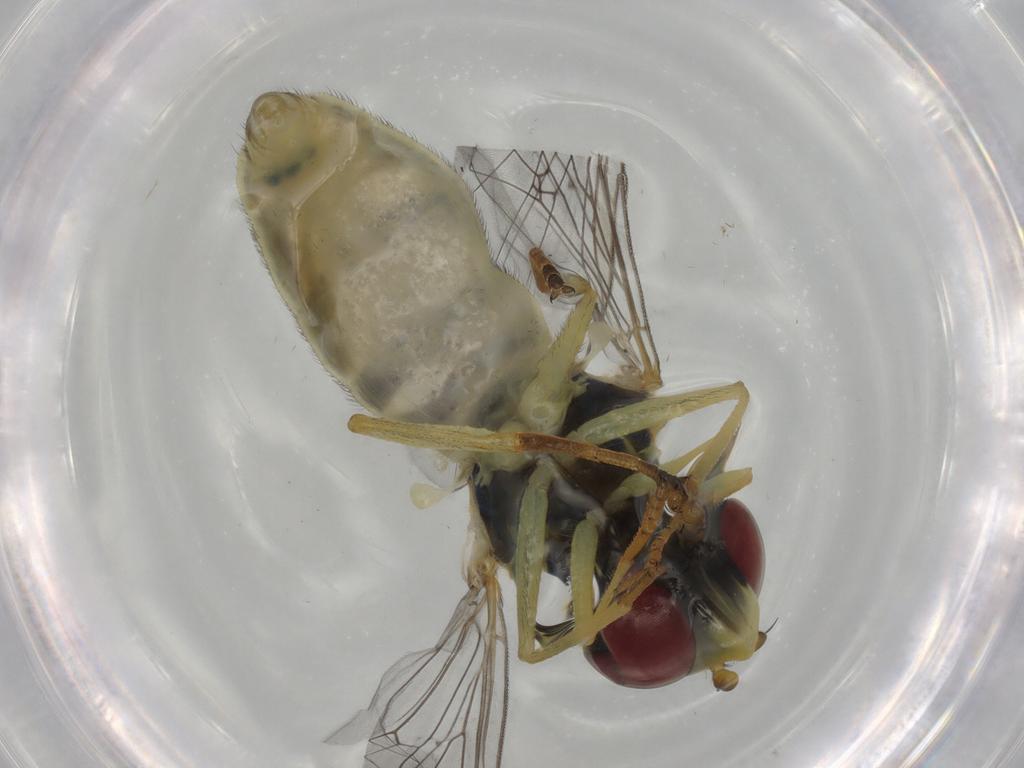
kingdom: Animalia
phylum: Arthropoda
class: Insecta
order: Diptera
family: Syrphidae
